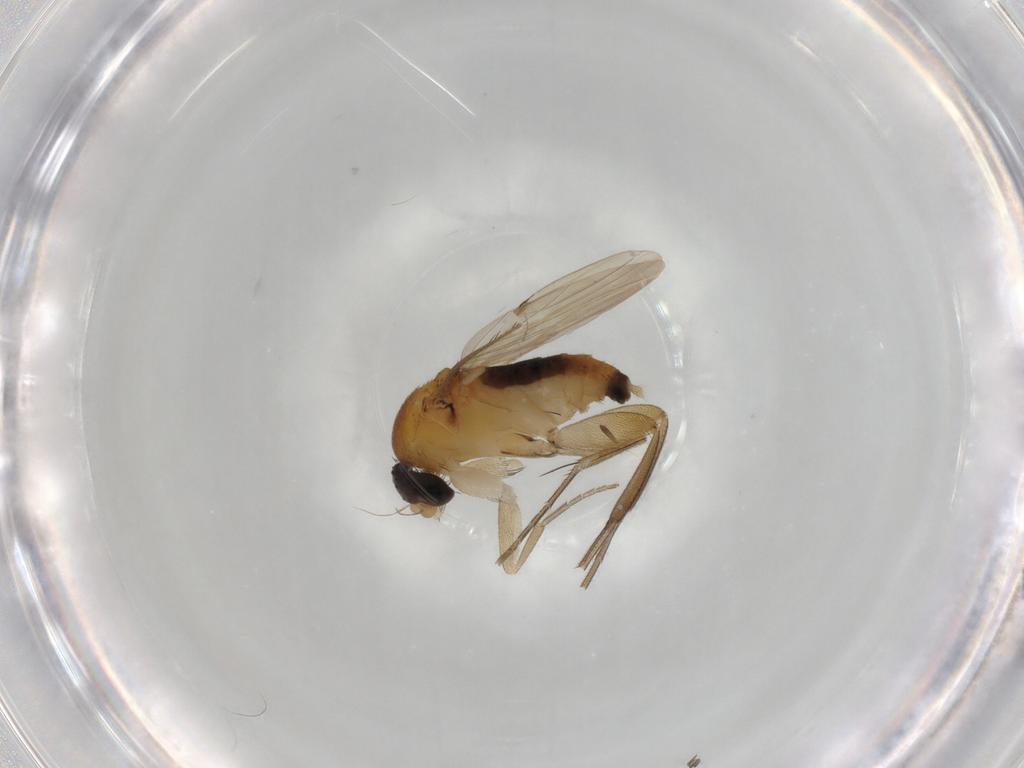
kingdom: Animalia
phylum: Arthropoda
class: Insecta
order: Diptera
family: Phoridae
